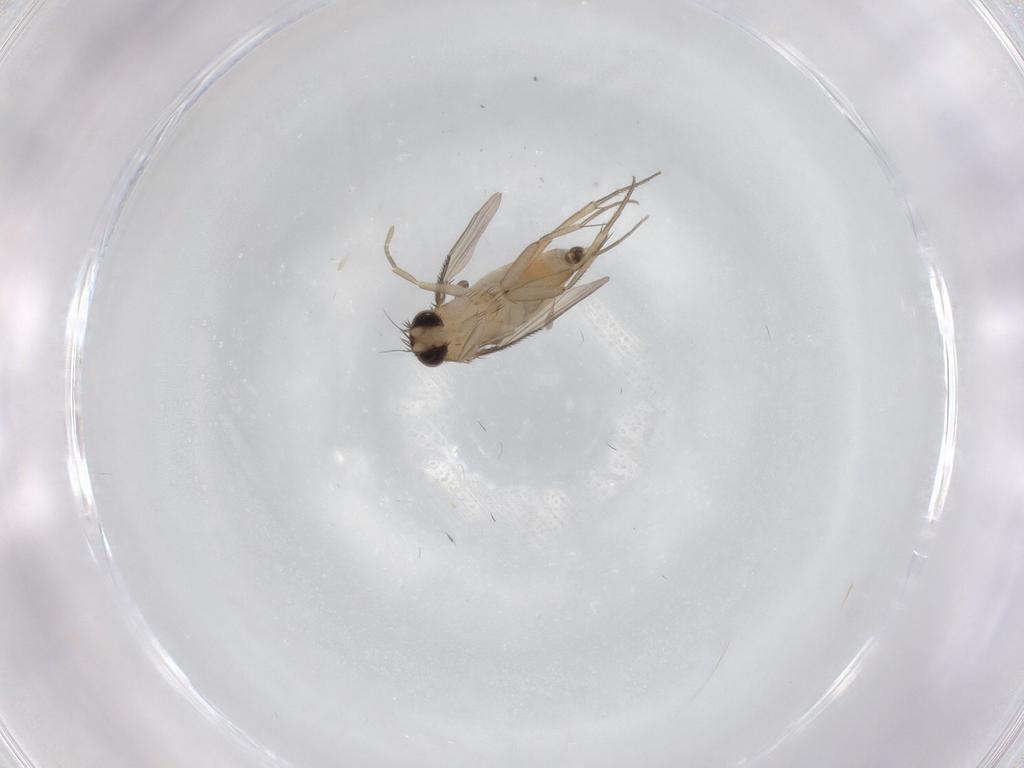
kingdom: Animalia
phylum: Arthropoda
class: Insecta
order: Diptera
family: Phoridae
